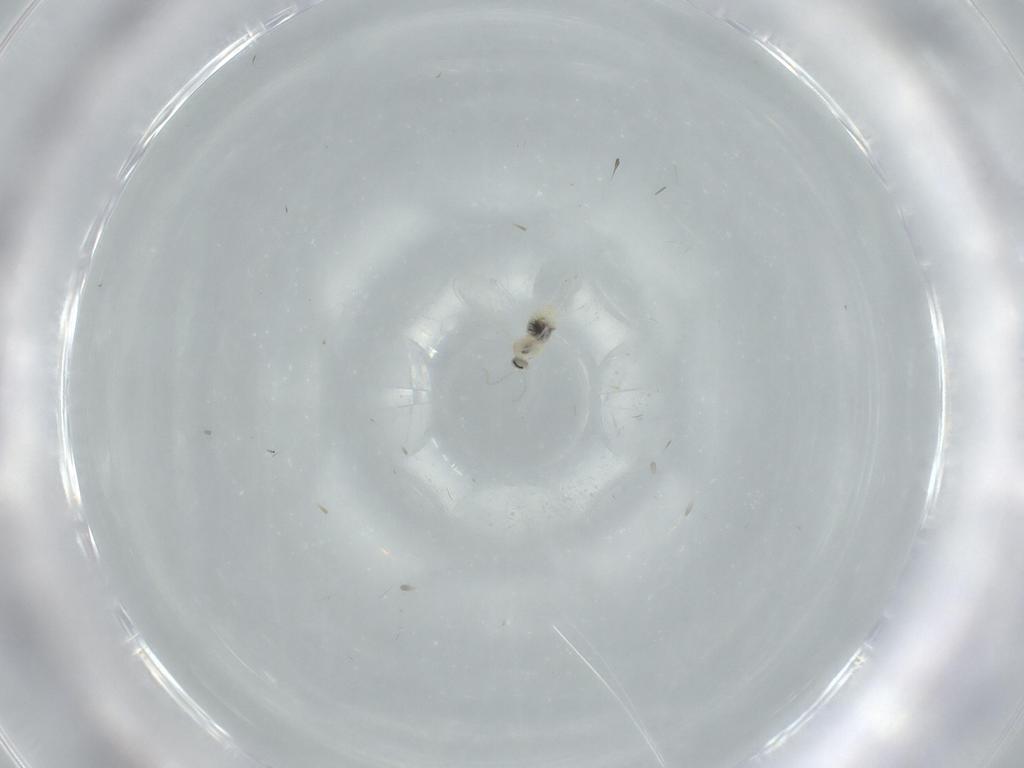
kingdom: Animalia
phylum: Arthropoda
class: Insecta
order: Diptera
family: Cecidomyiidae
